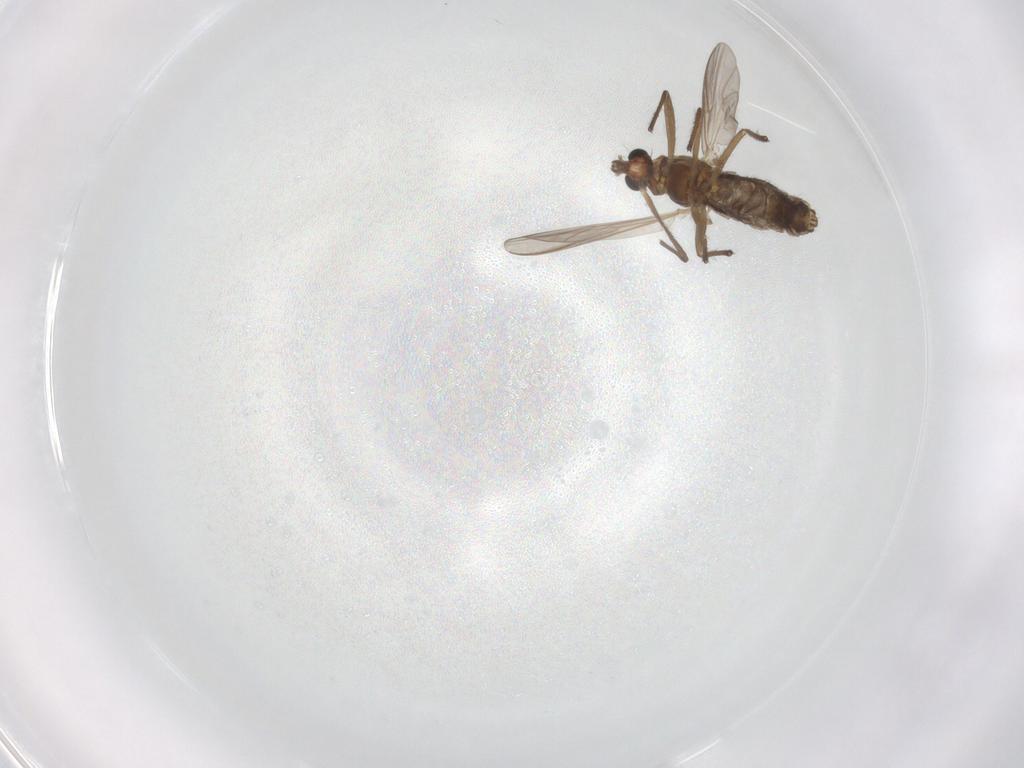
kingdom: Animalia
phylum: Arthropoda
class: Insecta
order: Diptera
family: Chironomidae
